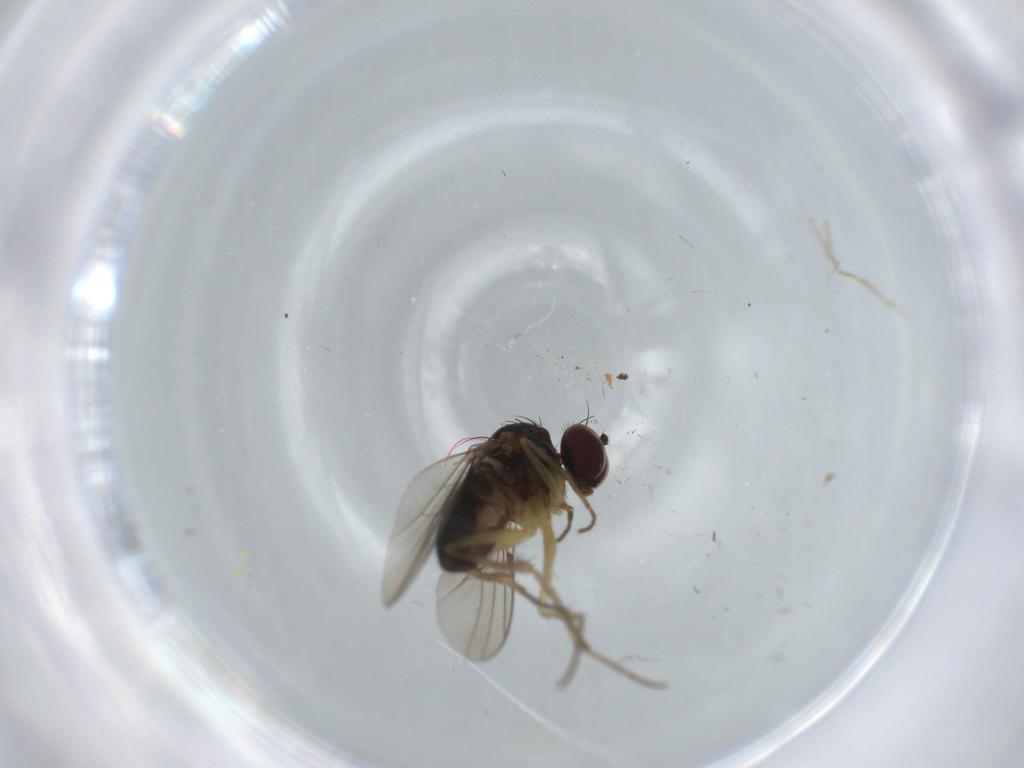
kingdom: Animalia
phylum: Arthropoda
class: Insecta
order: Diptera
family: Chironomidae
